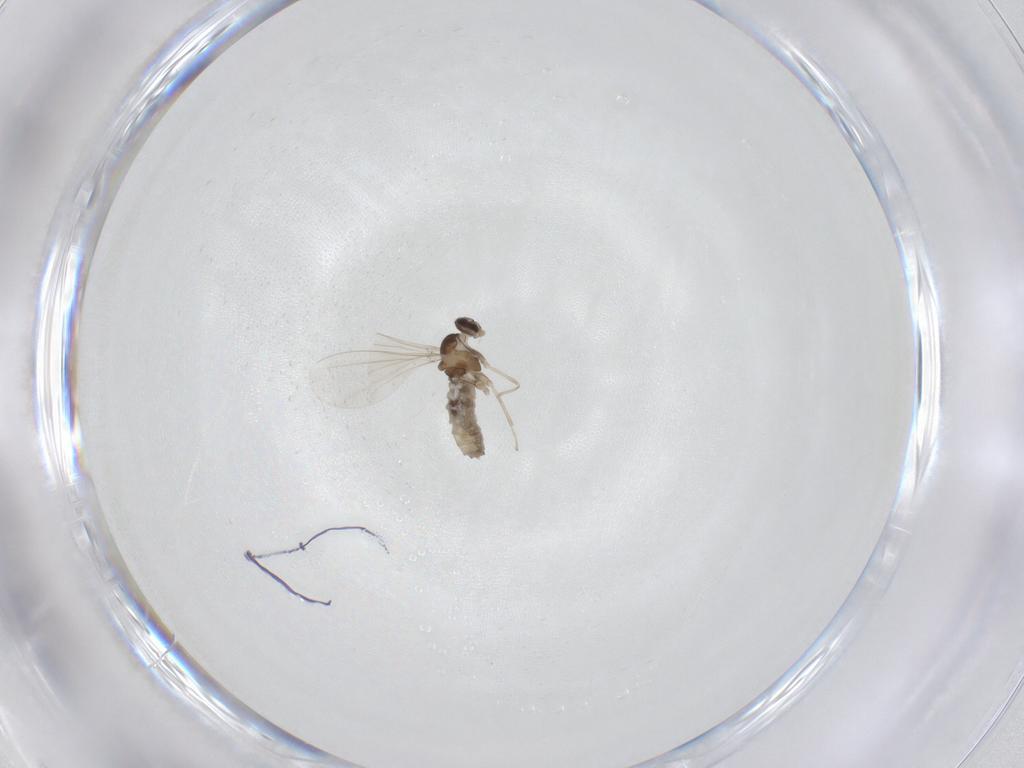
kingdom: Animalia
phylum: Arthropoda
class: Insecta
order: Diptera
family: Cecidomyiidae
